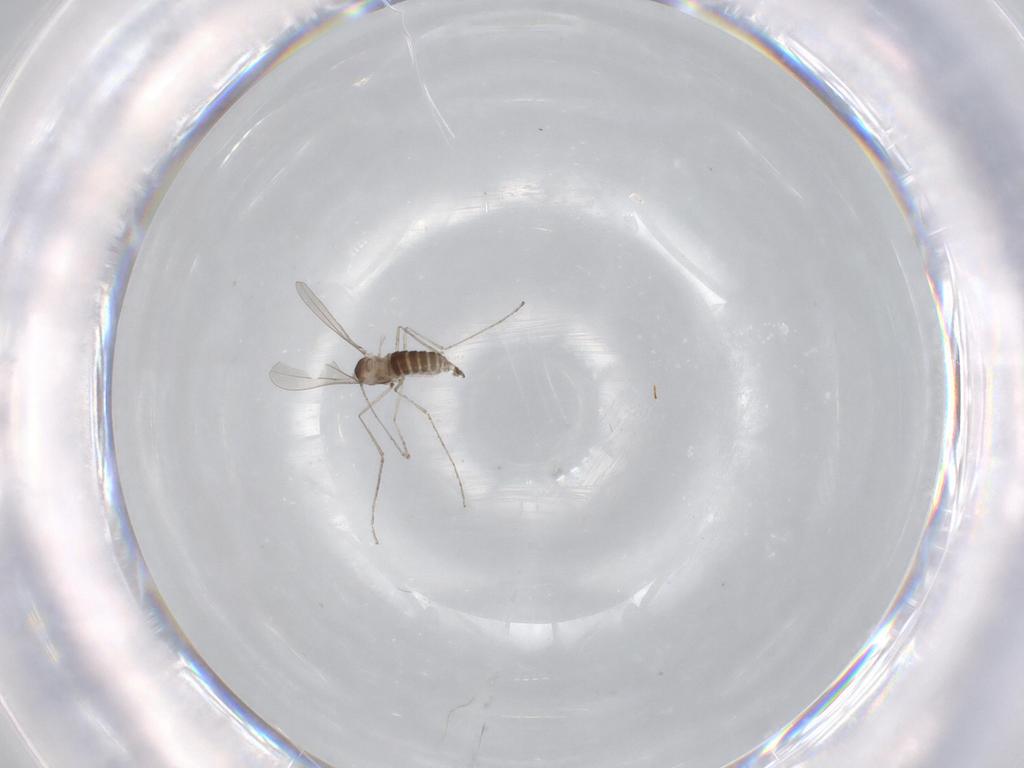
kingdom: Animalia
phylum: Arthropoda
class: Insecta
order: Diptera
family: Cecidomyiidae
